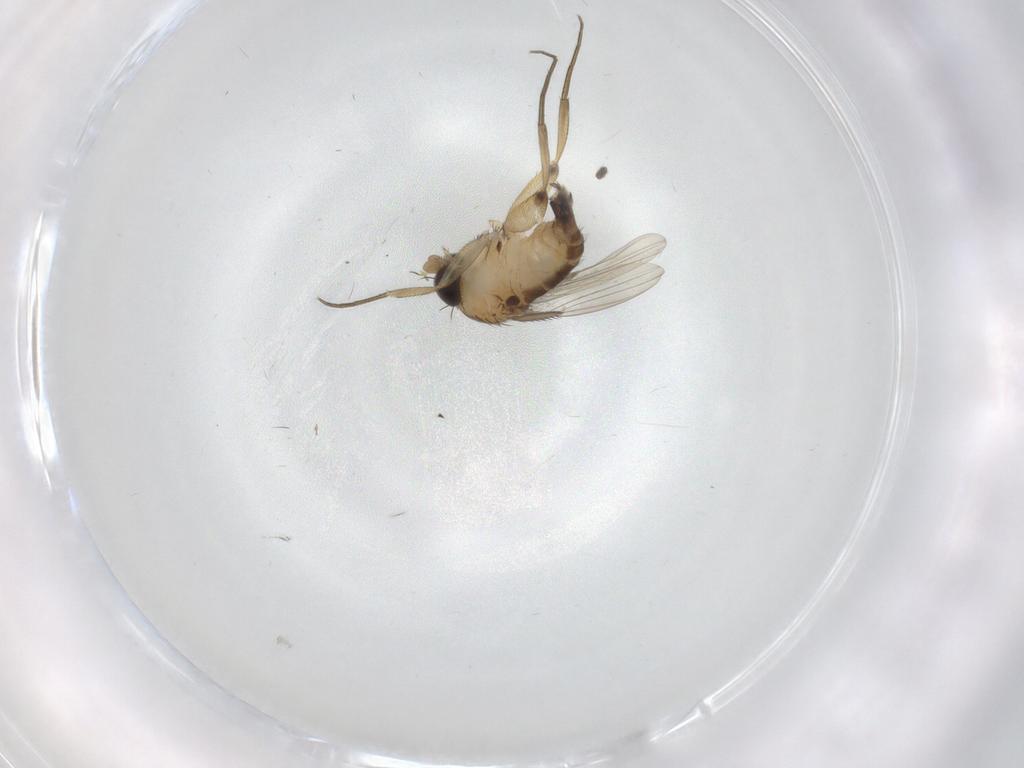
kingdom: Animalia
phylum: Arthropoda
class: Insecta
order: Diptera
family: Phoridae
